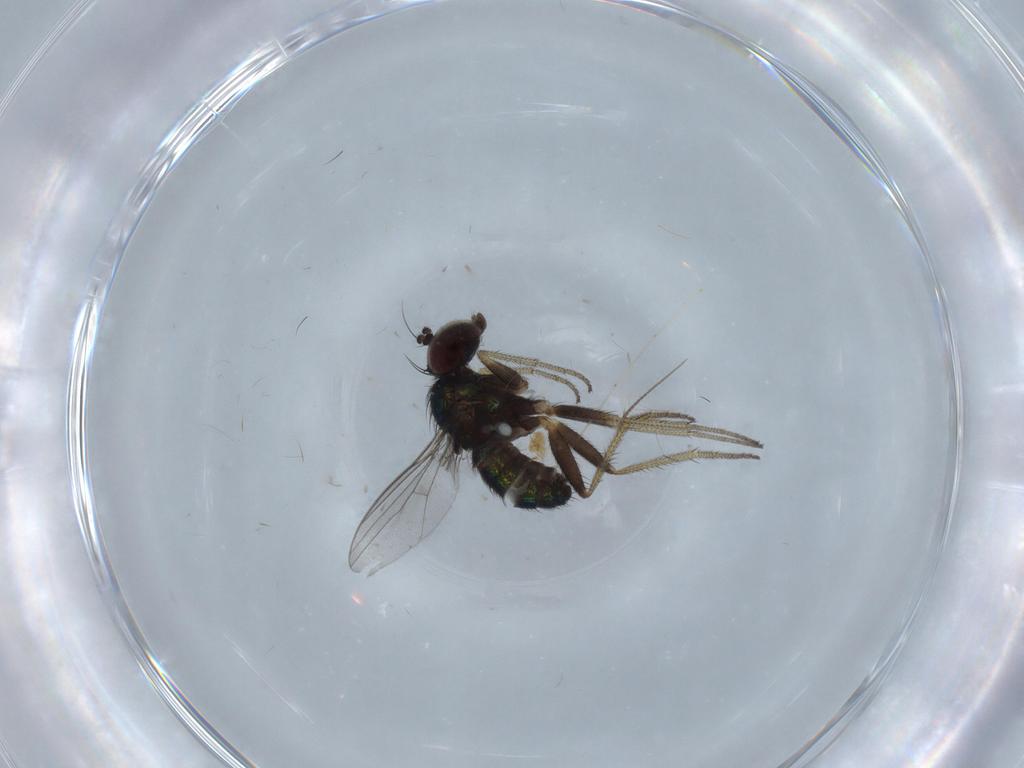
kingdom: Animalia
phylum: Arthropoda
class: Insecta
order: Diptera
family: Cecidomyiidae
